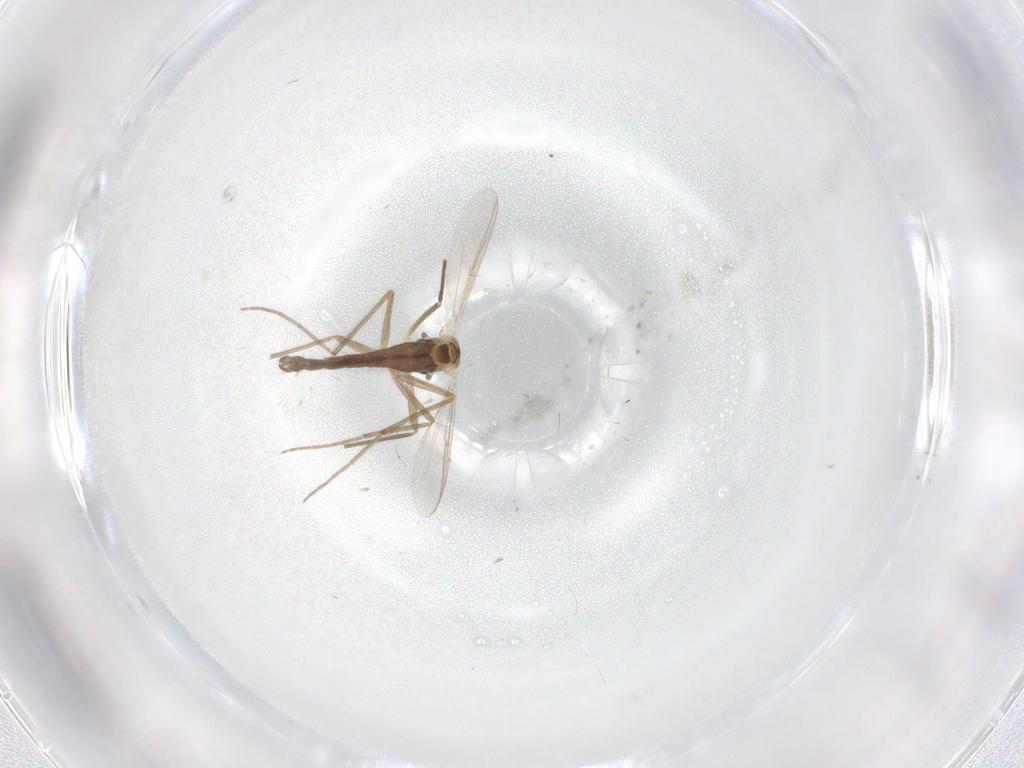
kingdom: Animalia
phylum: Arthropoda
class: Insecta
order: Diptera
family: Chironomidae
